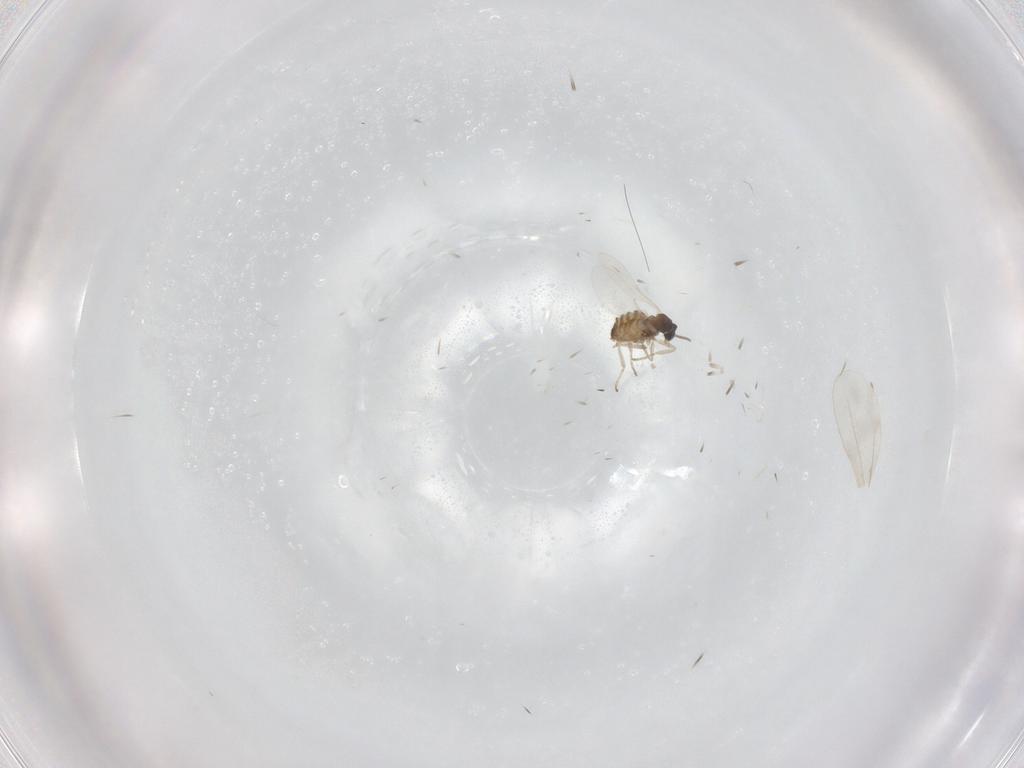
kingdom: Animalia
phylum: Arthropoda
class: Insecta
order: Diptera
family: Cecidomyiidae
